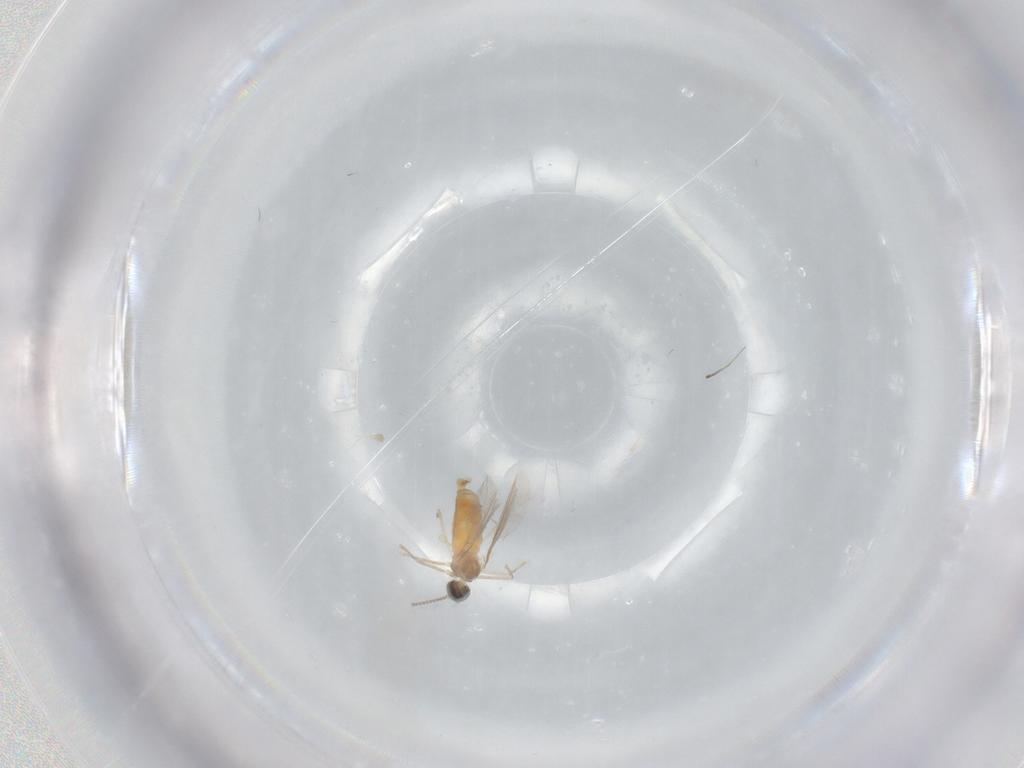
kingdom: Animalia
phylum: Arthropoda
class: Insecta
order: Diptera
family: Cecidomyiidae
